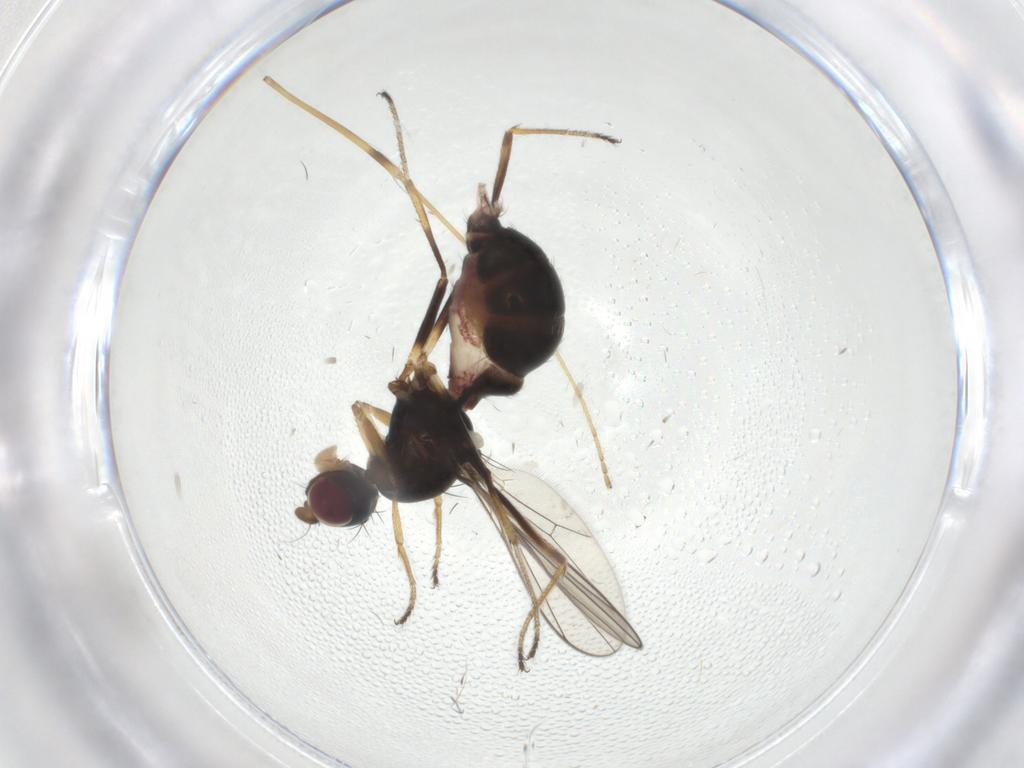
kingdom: Animalia
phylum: Arthropoda
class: Insecta
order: Diptera
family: Sepsidae
